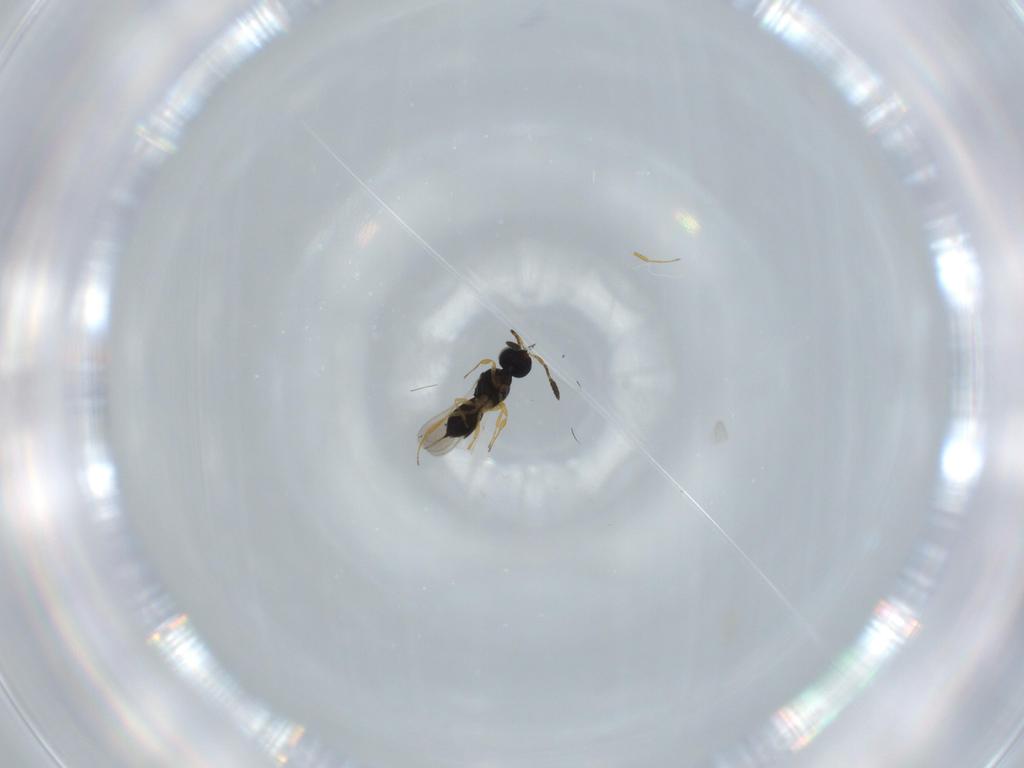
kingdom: Animalia
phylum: Arthropoda
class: Insecta
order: Hymenoptera
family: Scelionidae
